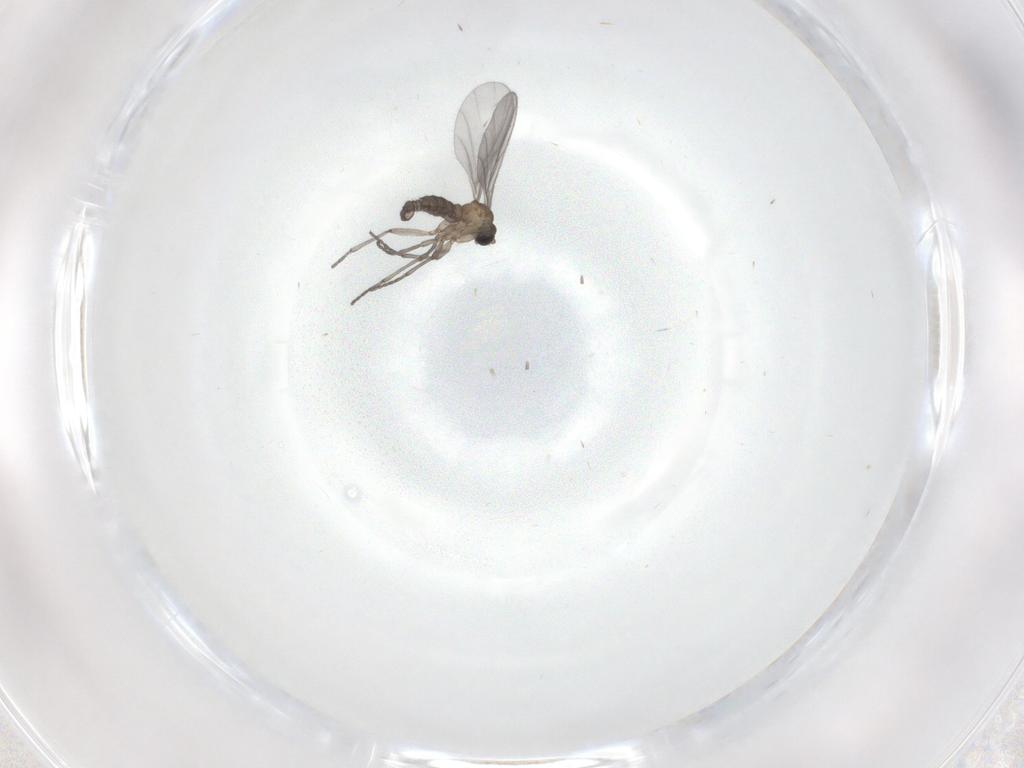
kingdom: Animalia
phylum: Arthropoda
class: Insecta
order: Diptera
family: Sciaridae
